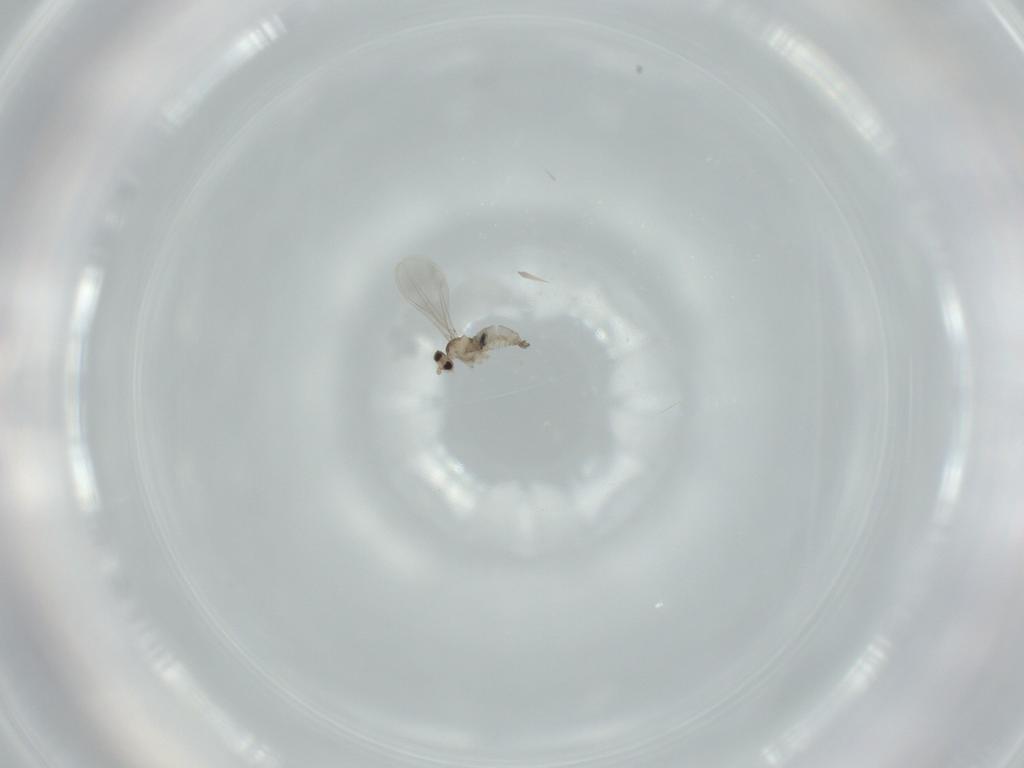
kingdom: Animalia
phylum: Arthropoda
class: Insecta
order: Diptera
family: Cecidomyiidae
